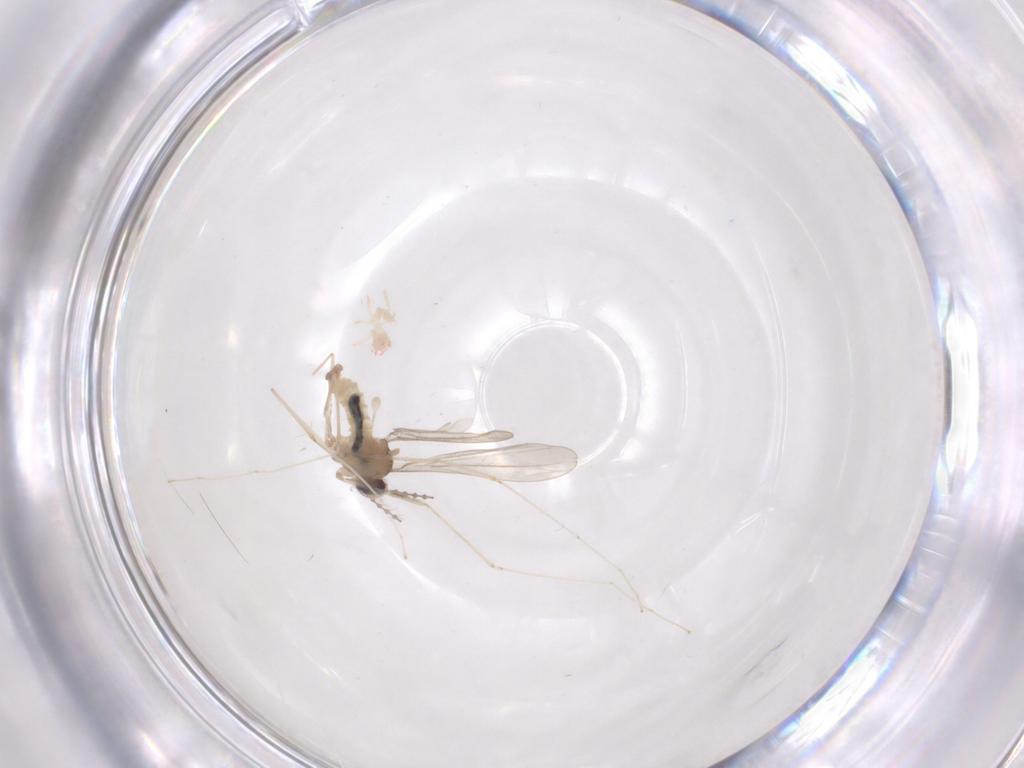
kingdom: Animalia
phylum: Arthropoda
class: Insecta
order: Diptera
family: Cecidomyiidae
